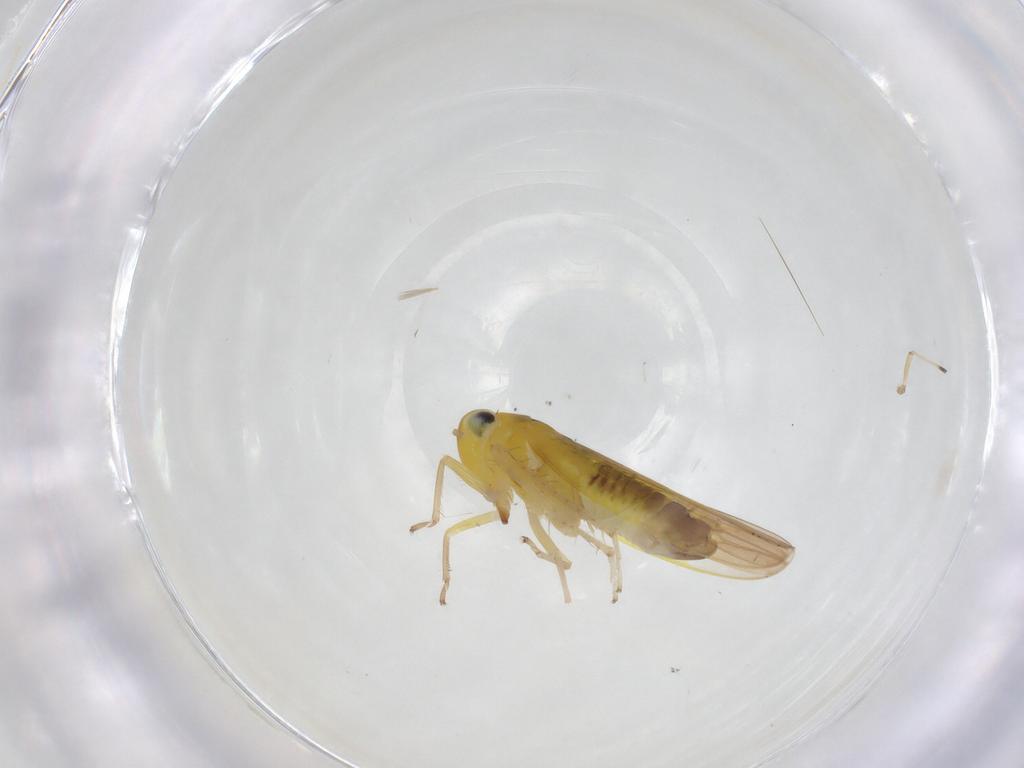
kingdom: Animalia
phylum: Arthropoda
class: Insecta
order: Hemiptera
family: Cicadellidae
